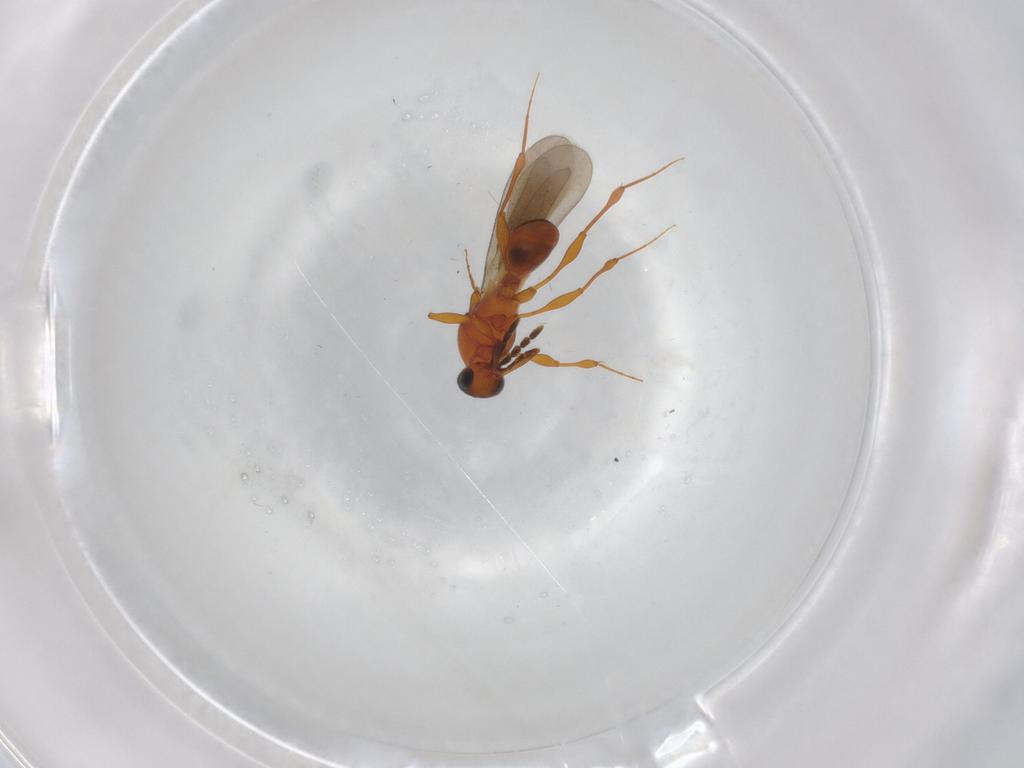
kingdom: Animalia
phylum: Arthropoda
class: Insecta
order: Hymenoptera
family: Platygastridae
